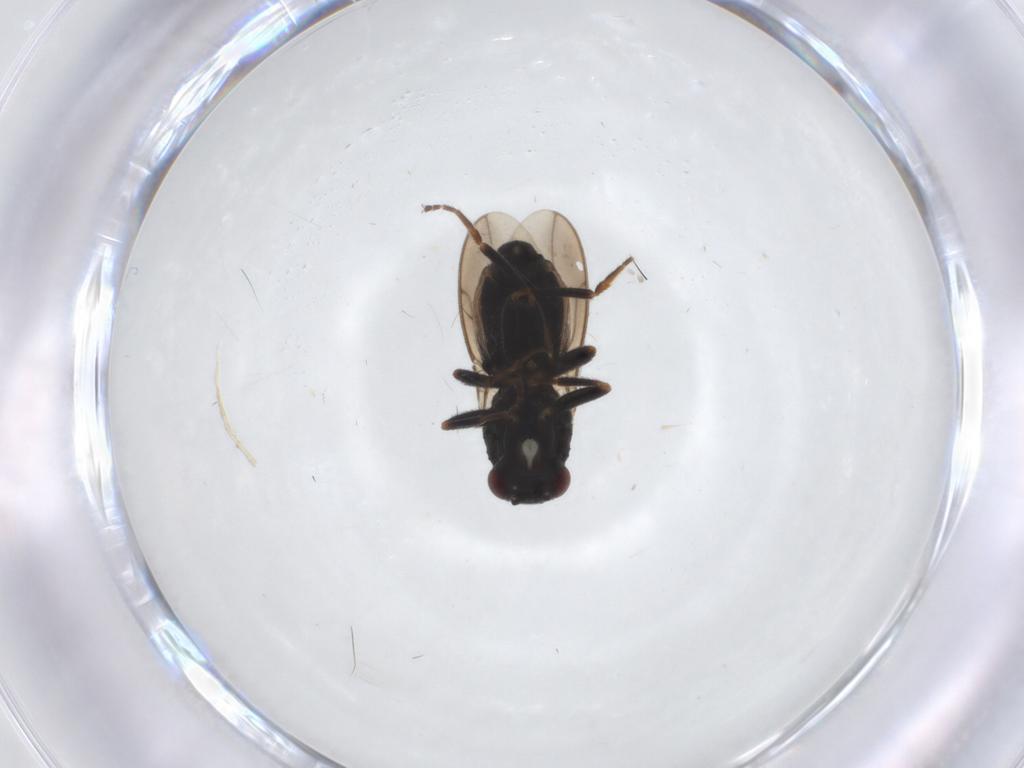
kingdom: Animalia
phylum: Arthropoda
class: Insecta
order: Diptera
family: Sphaeroceridae
